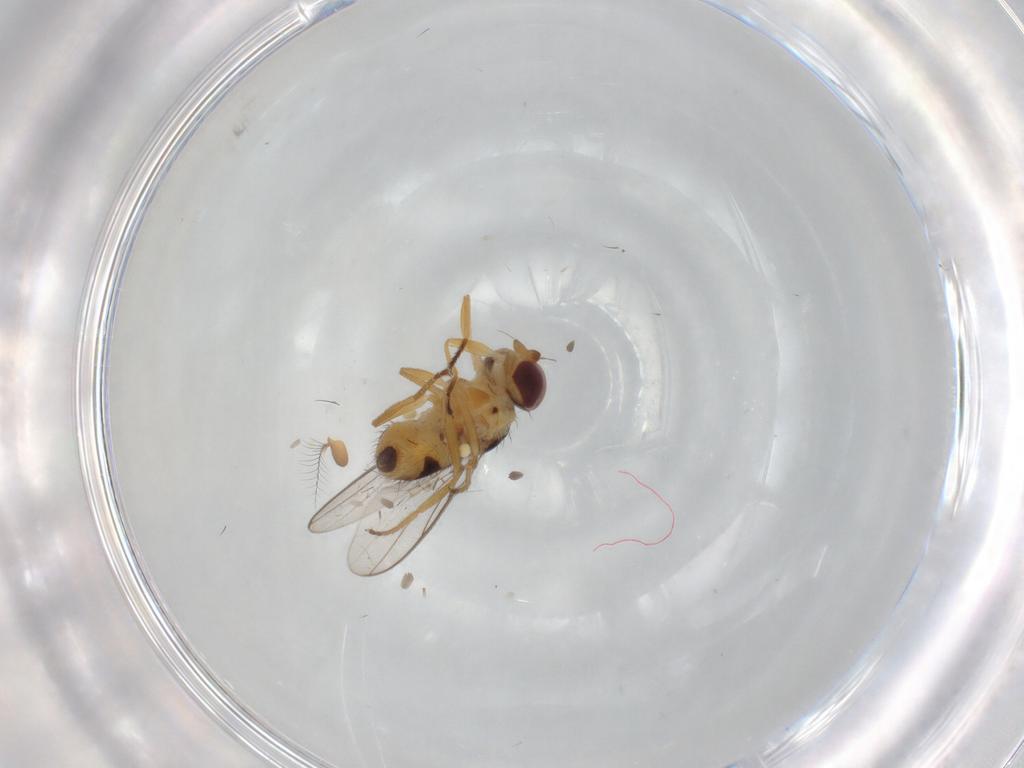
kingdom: Animalia
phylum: Arthropoda
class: Insecta
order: Diptera
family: Chloropidae
